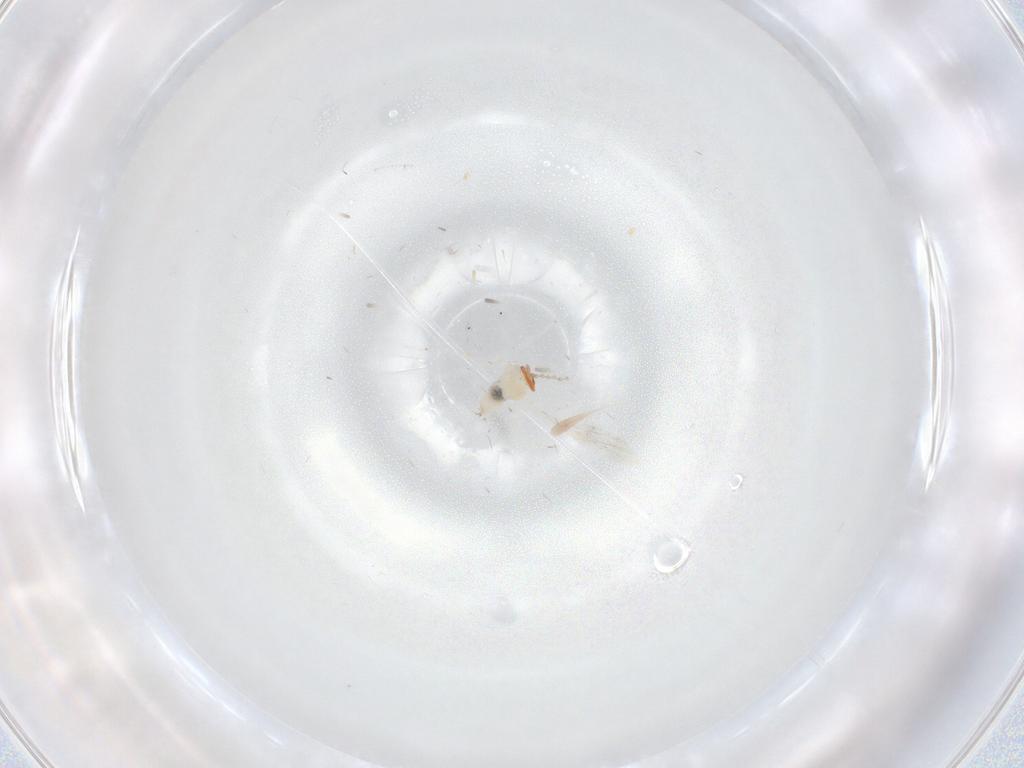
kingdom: Animalia
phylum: Arthropoda
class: Insecta
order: Diptera
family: Cecidomyiidae
